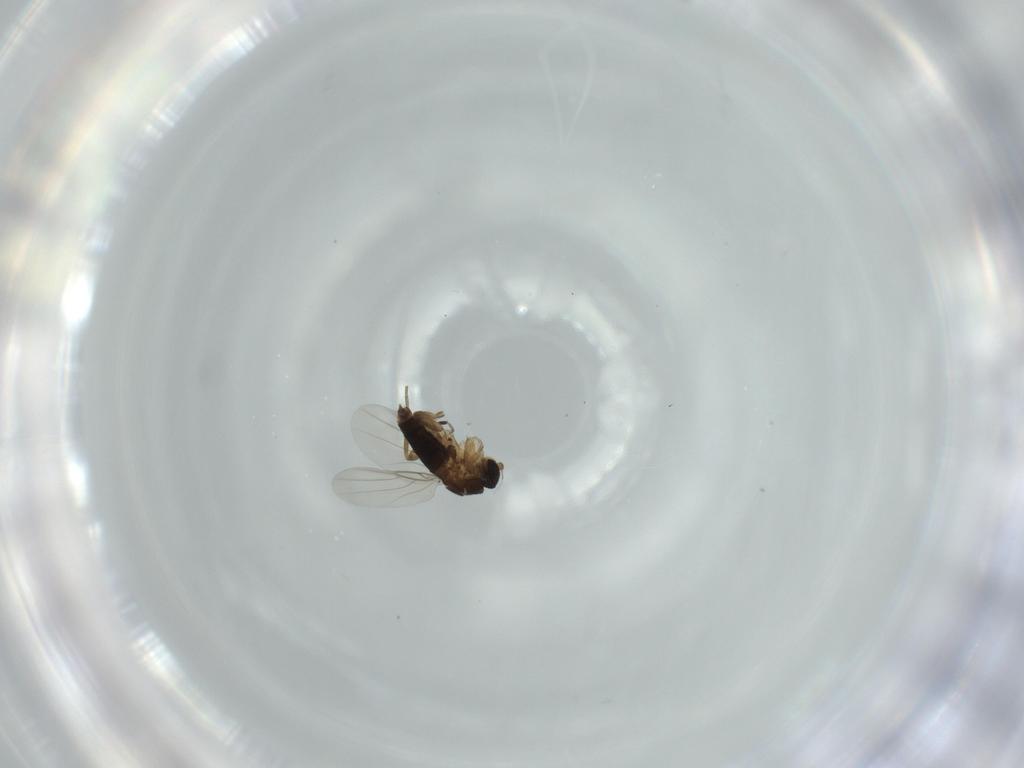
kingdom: Animalia
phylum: Arthropoda
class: Insecta
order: Diptera
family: Phoridae
